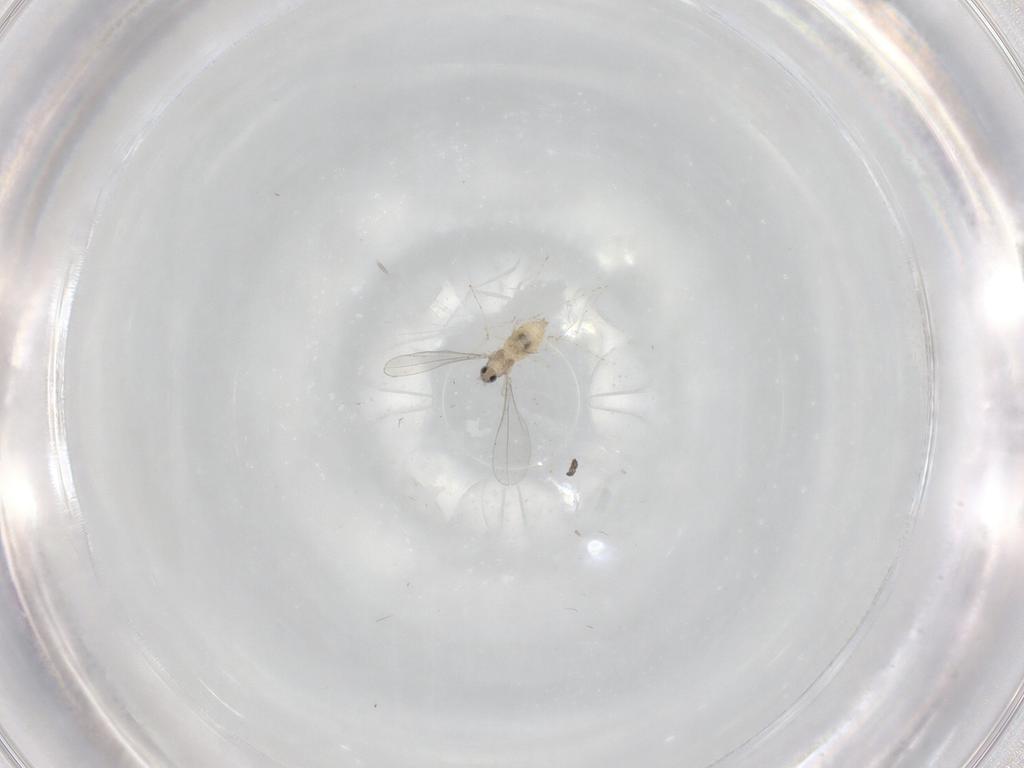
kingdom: Animalia
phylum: Arthropoda
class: Insecta
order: Diptera
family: Cecidomyiidae
